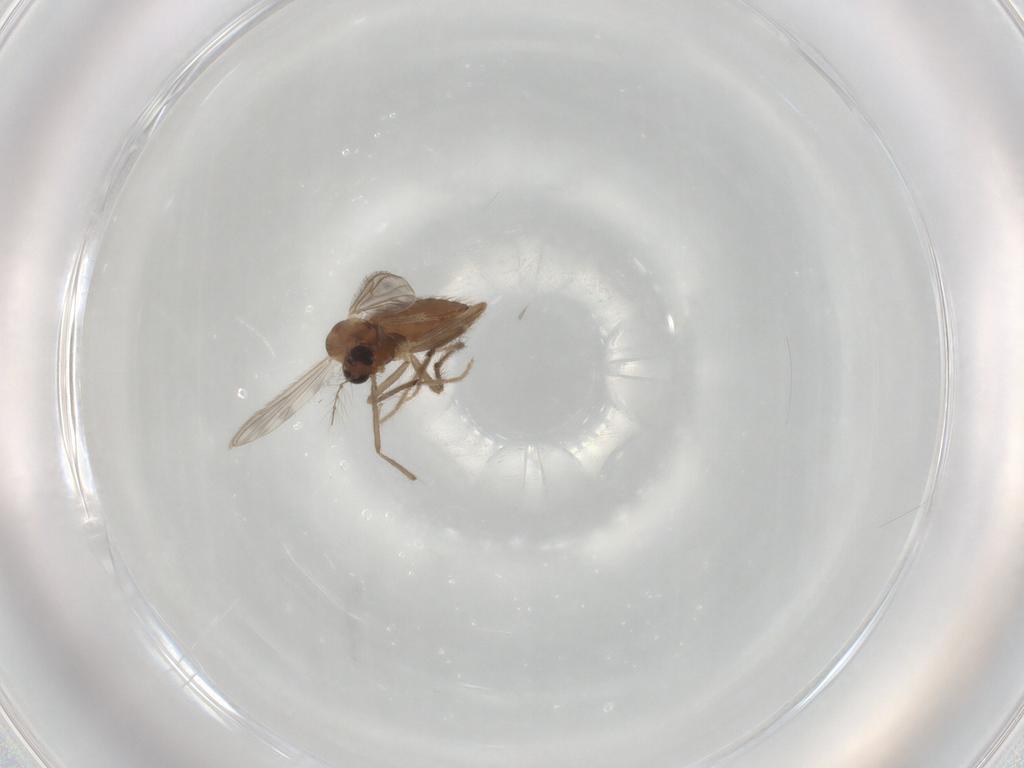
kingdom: Animalia
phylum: Arthropoda
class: Insecta
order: Diptera
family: Chironomidae
